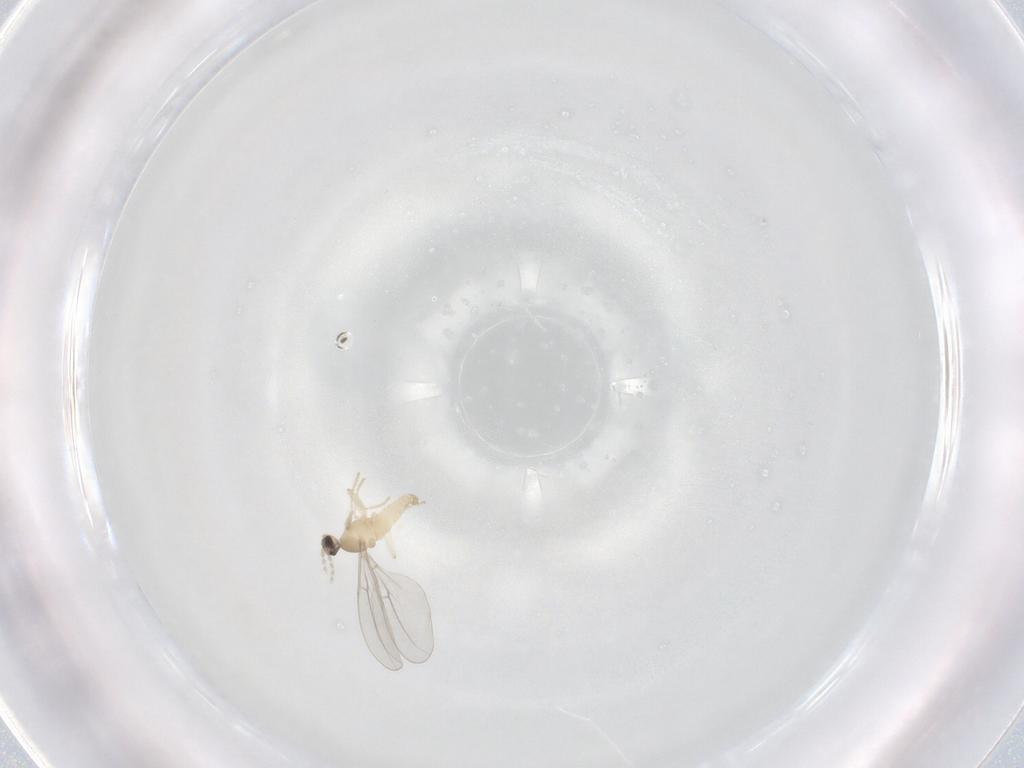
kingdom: Animalia
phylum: Arthropoda
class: Insecta
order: Diptera
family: Cecidomyiidae
